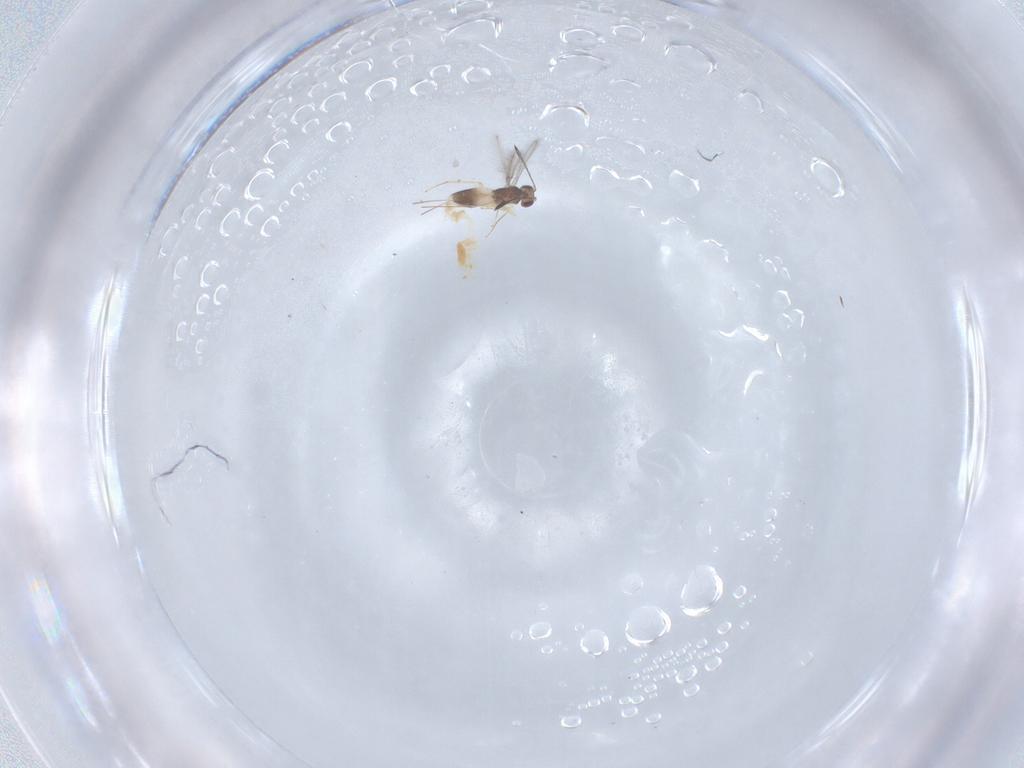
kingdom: Animalia
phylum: Arthropoda
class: Insecta
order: Hymenoptera
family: Mymaridae
